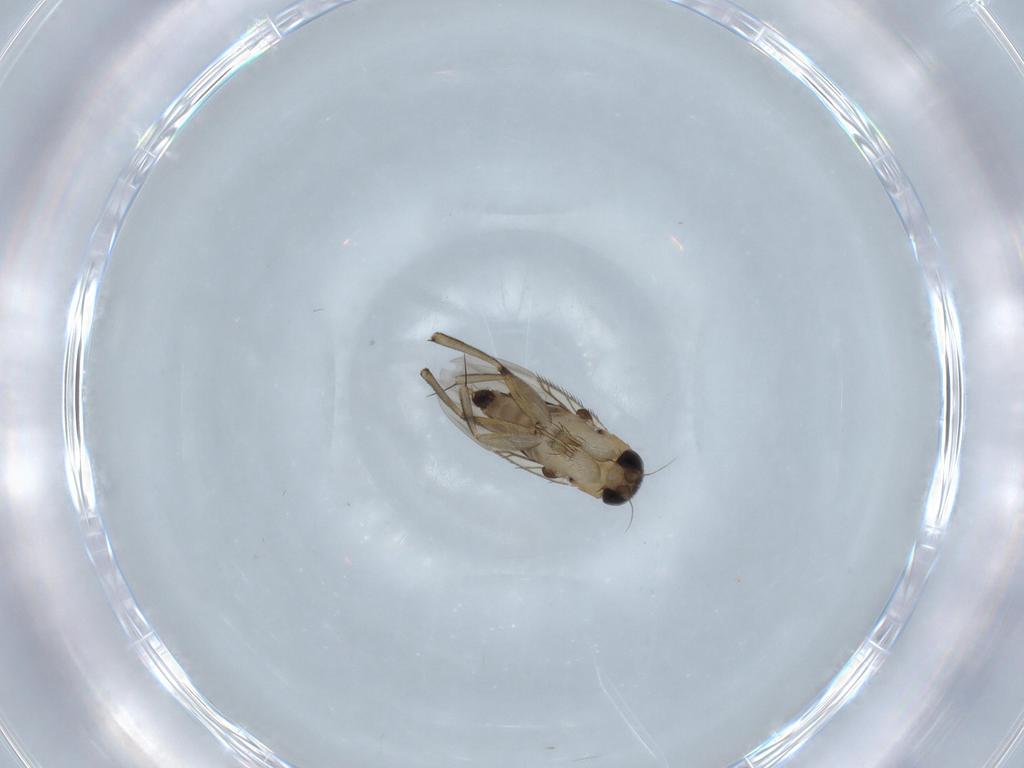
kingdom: Animalia
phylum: Arthropoda
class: Insecta
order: Diptera
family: Phoridae
